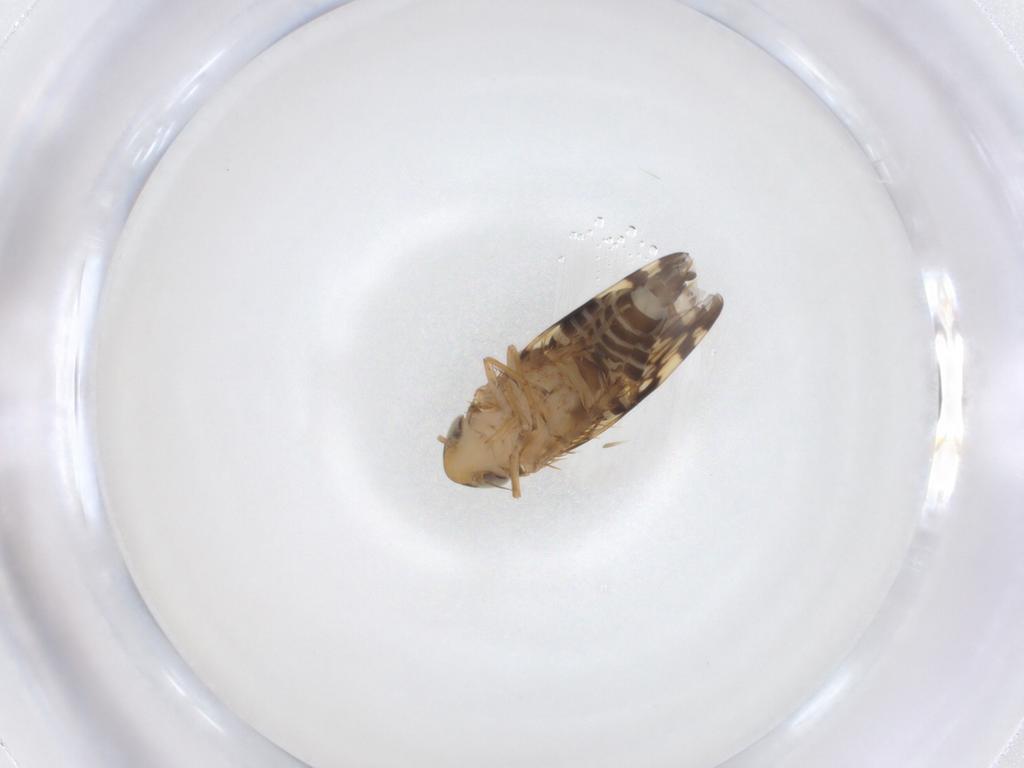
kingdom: Animalia
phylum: Arthropoda
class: Insecta
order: Hemiptera
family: Cicadellidae
